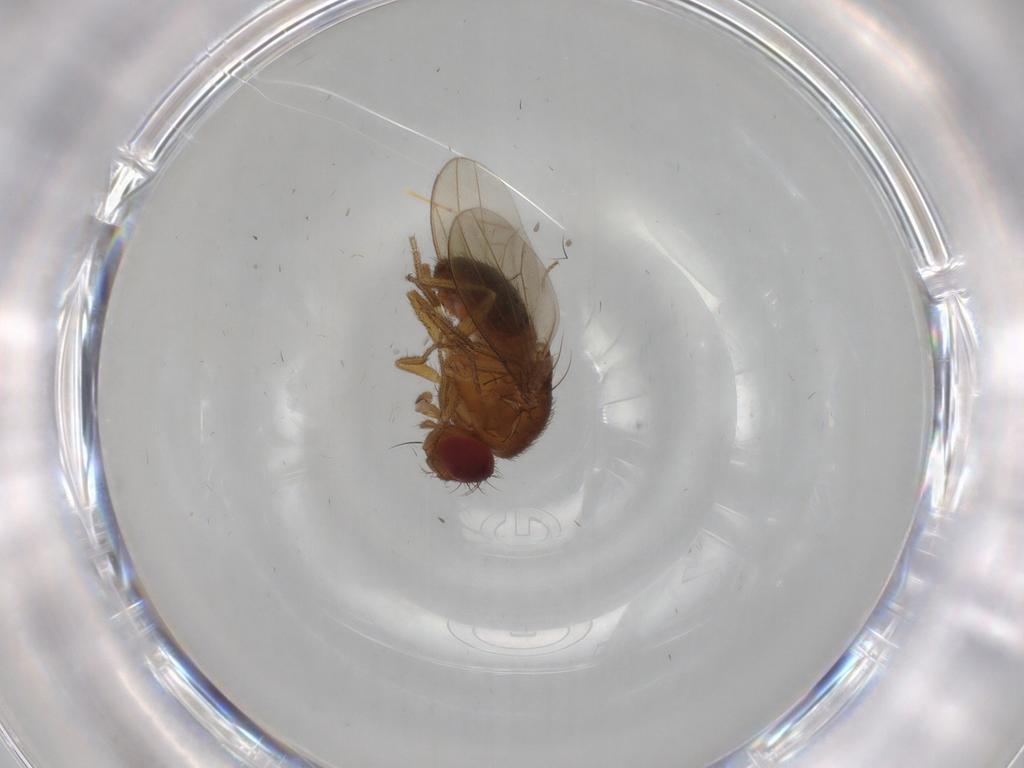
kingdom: Animalia
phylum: Arthropoda
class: Insecta
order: Diptera
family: Drosophilidae
